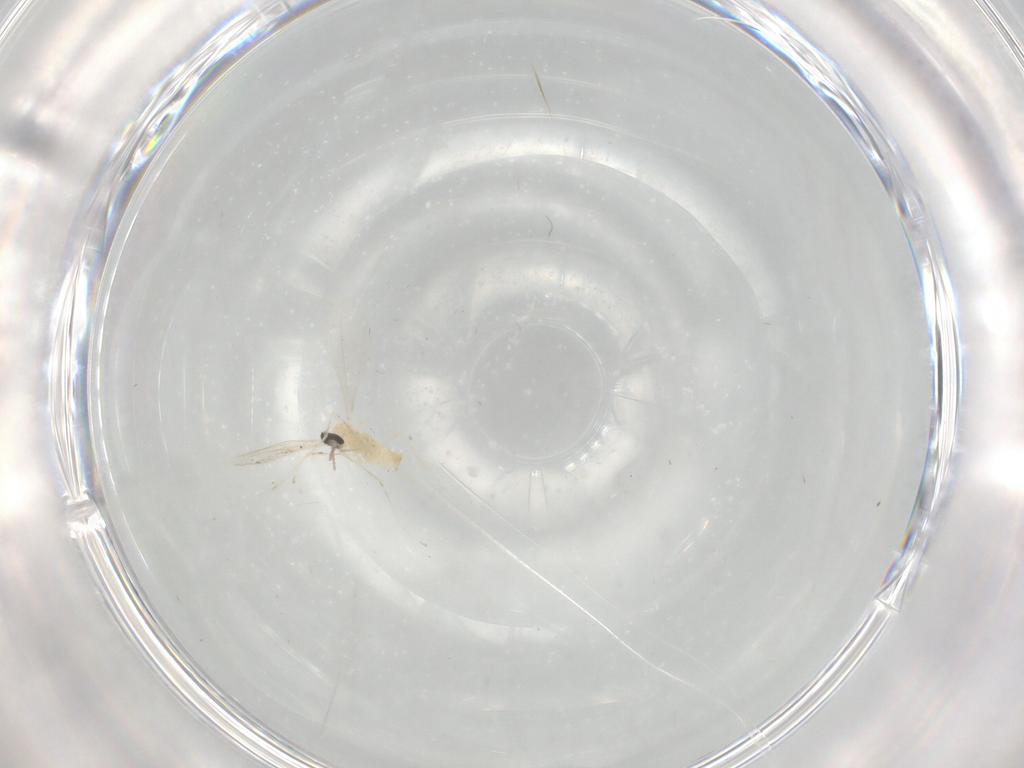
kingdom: Animalia
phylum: Arthropoda
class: Insecta
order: Diptera
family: Cecidomyiidae
